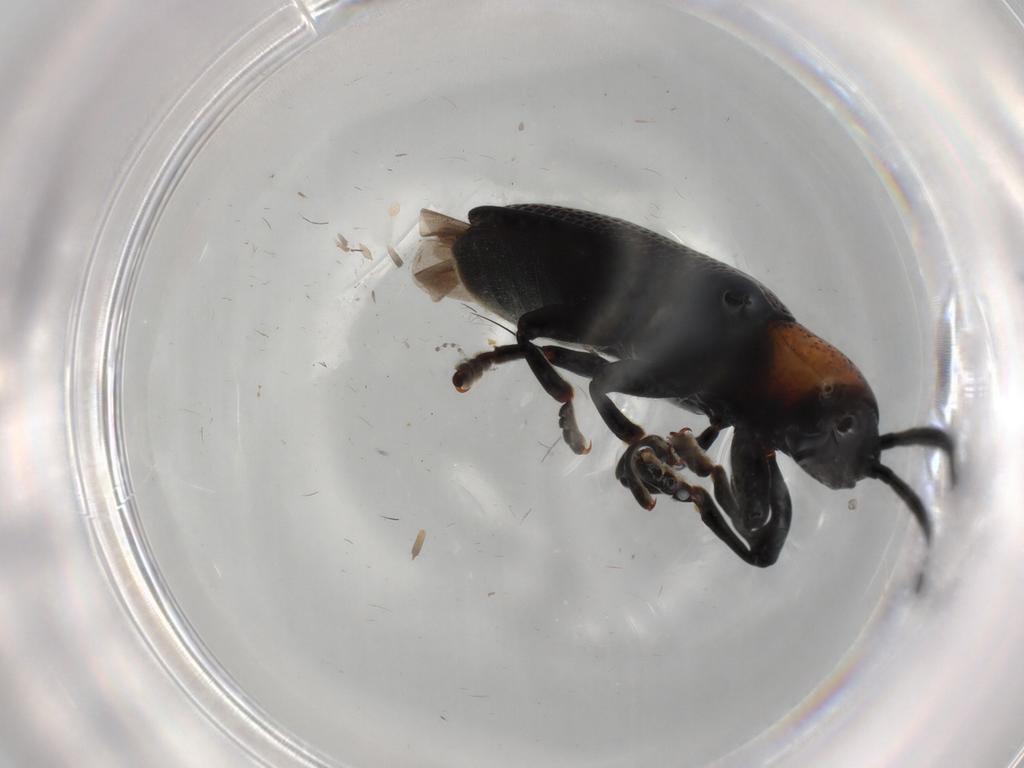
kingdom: Animalia
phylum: Arthropoda
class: Insecta
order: Coleoptera
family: Chrysomelidae
